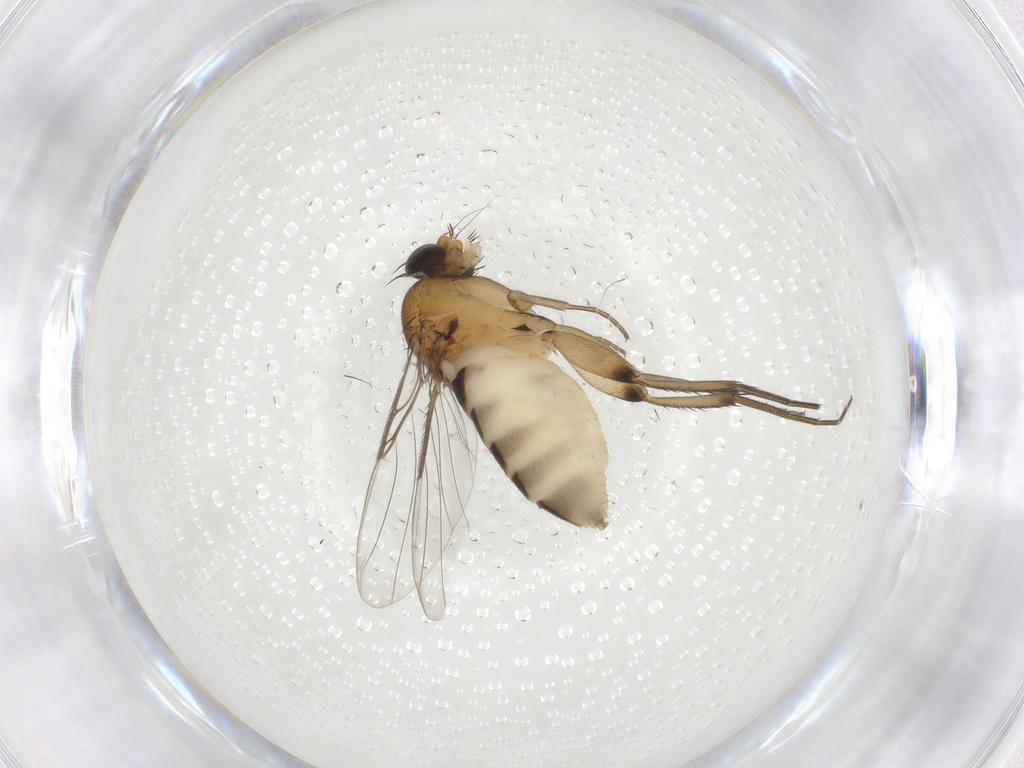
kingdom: Animalia
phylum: Arthropoda
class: Insecta
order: Diptera
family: Phoridae
